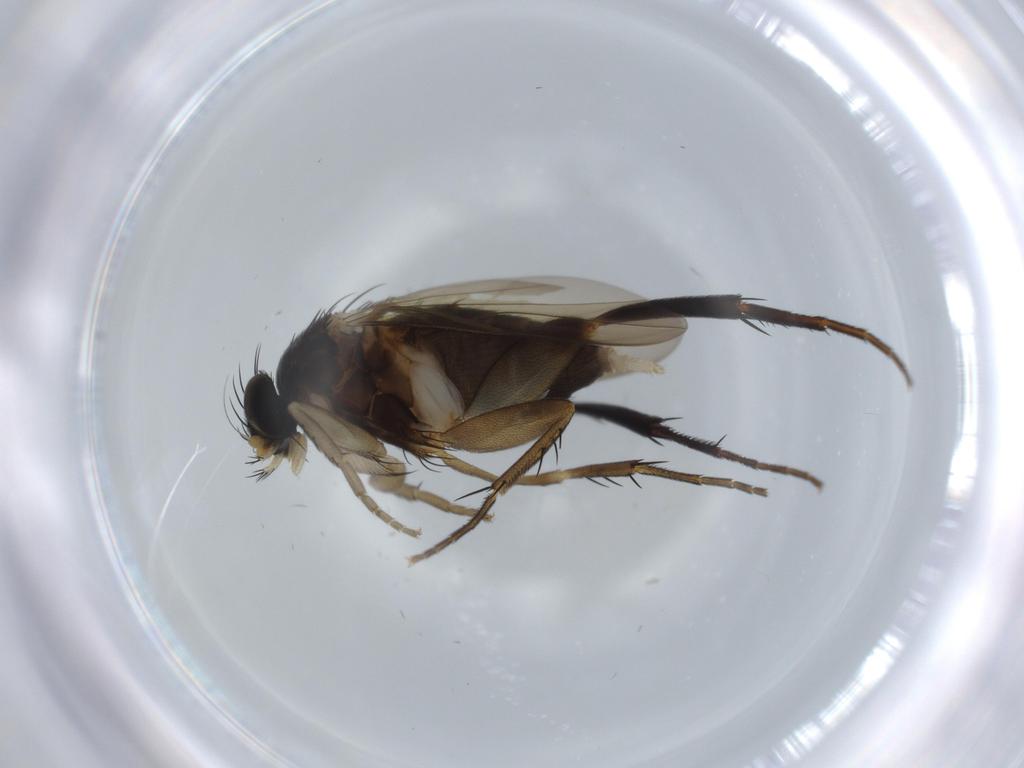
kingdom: Animalia
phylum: Arthropoda
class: Insecta
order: Diptera
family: Phoridae
